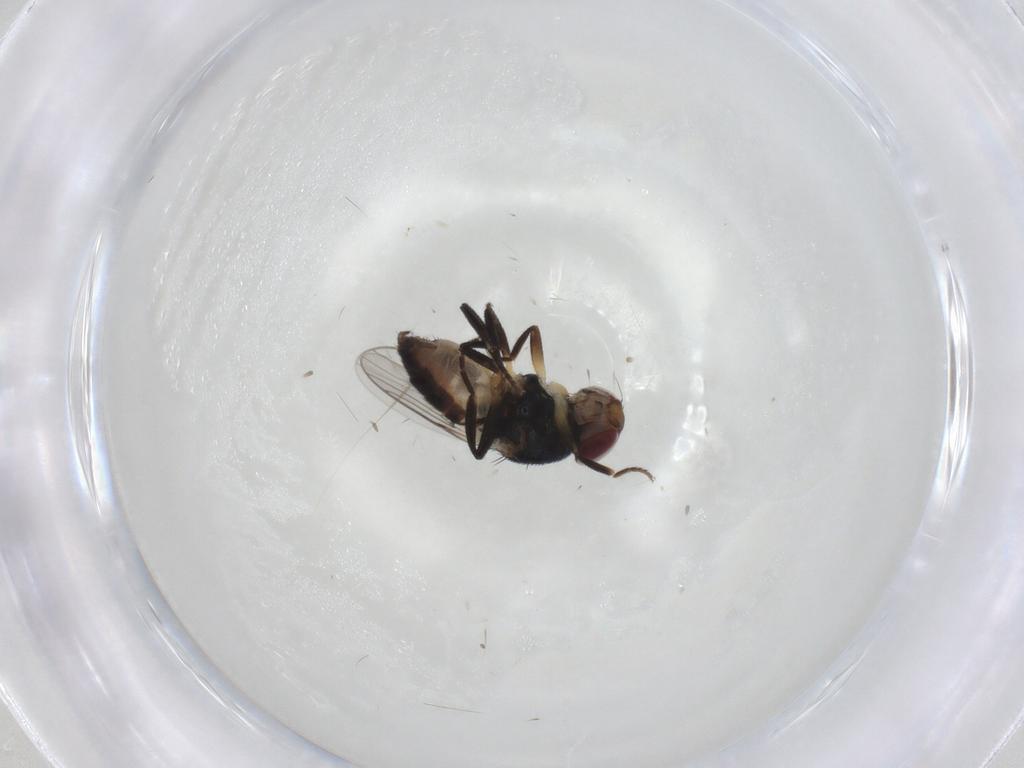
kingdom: Animalia
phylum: Arthropoda
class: Insecta
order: Diptera
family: Chloropidae
